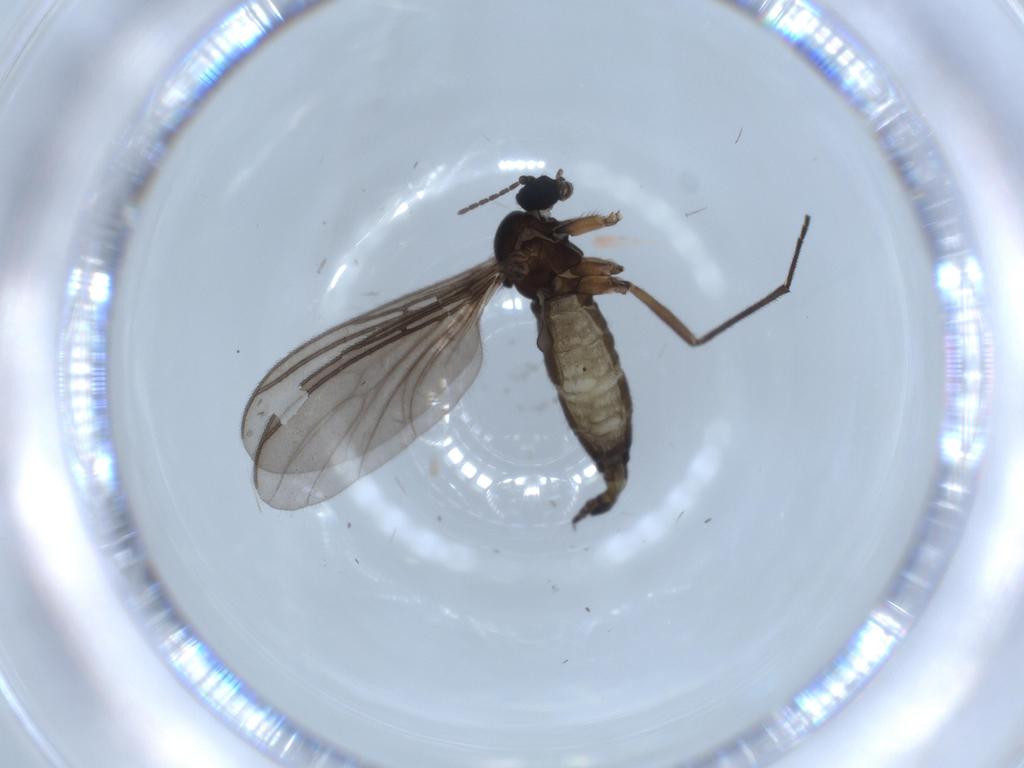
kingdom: Animalia
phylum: Arthropoda
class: Insecta
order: Diptera
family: Sciaridae
